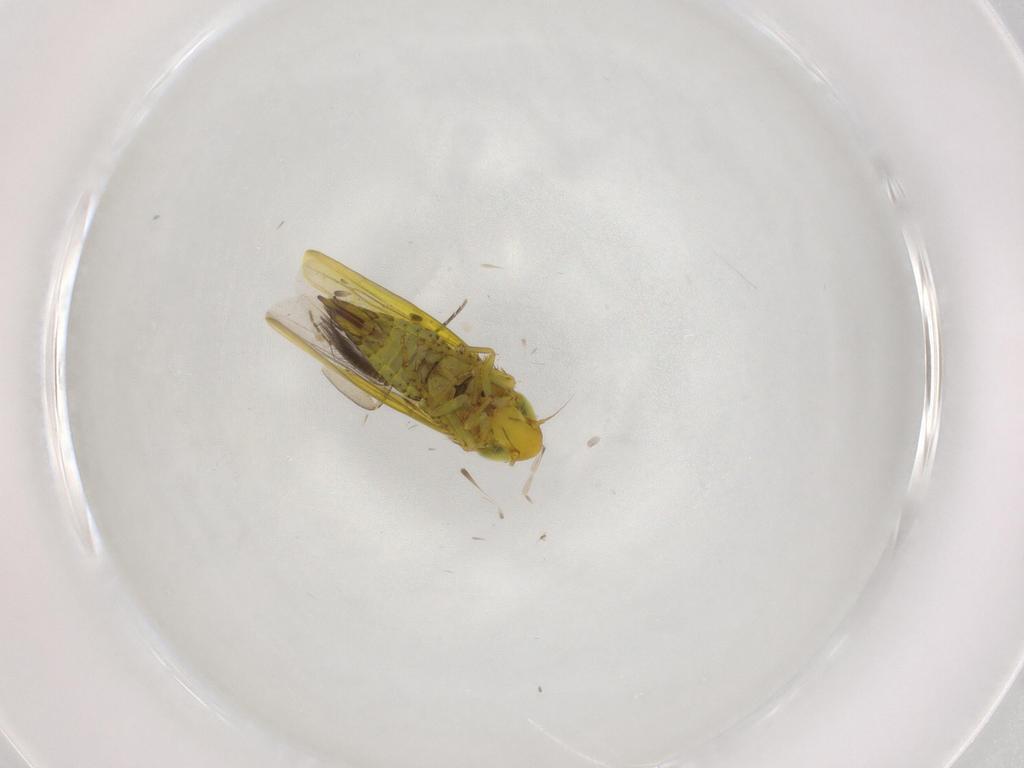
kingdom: Animalia
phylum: Arthropoda
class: Insecta
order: Hemiptera
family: Cicadellidae
